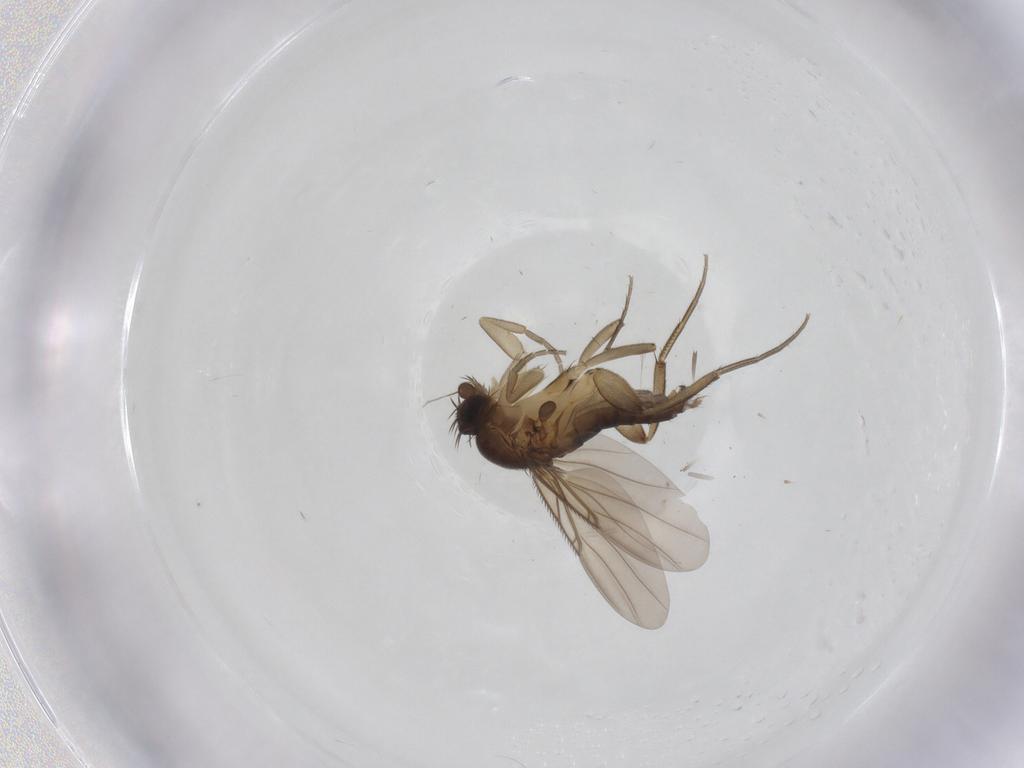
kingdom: Animalia
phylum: Arthropoda
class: Insecta
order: Diptera
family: Phoridae
